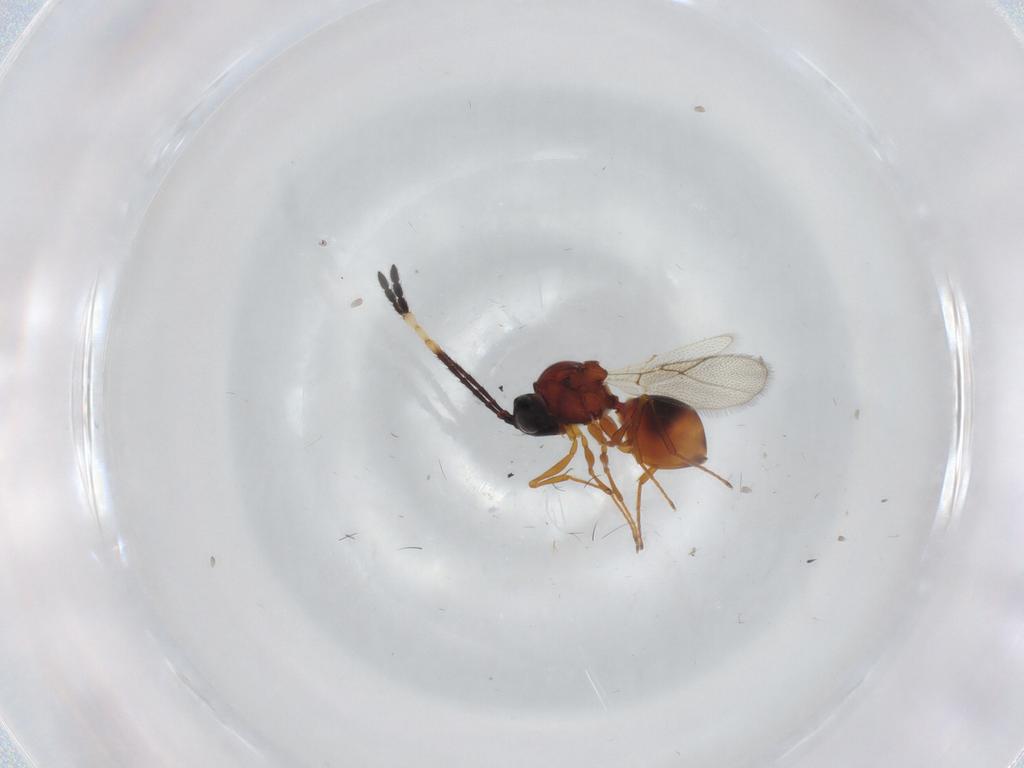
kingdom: Animalia
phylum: Arthropoda
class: Insecta
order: Hymenoptera
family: Figitidae
